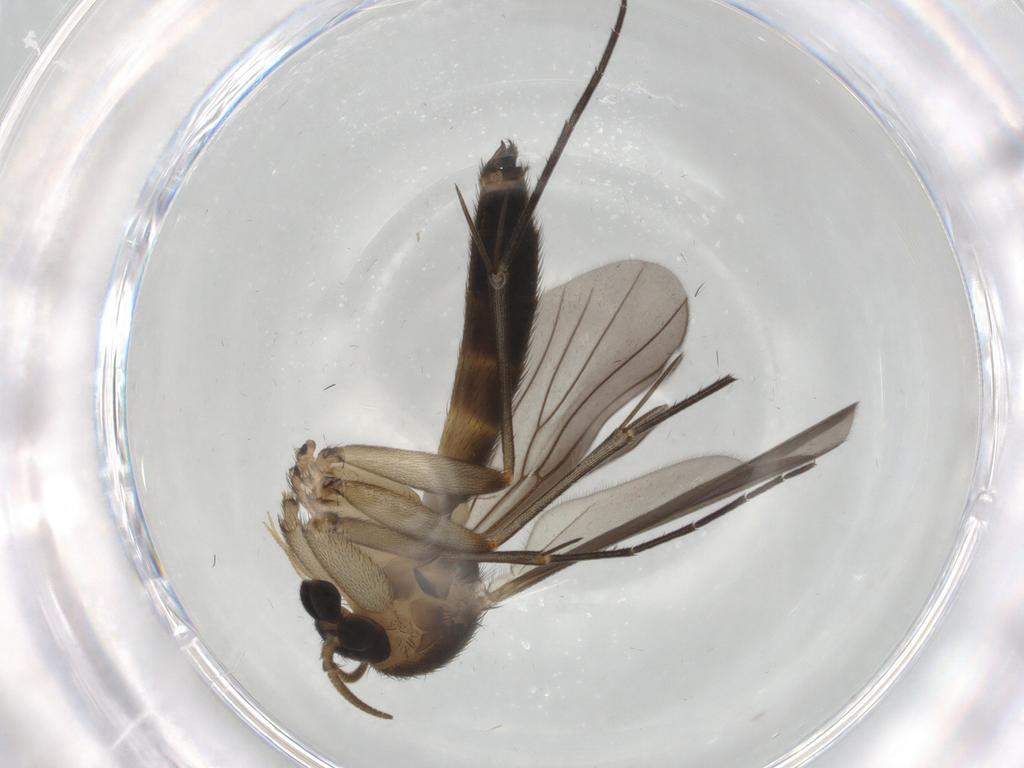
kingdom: Animalia
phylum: Arthropoda
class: Insecta
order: Diptera
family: Mycetophilidae
